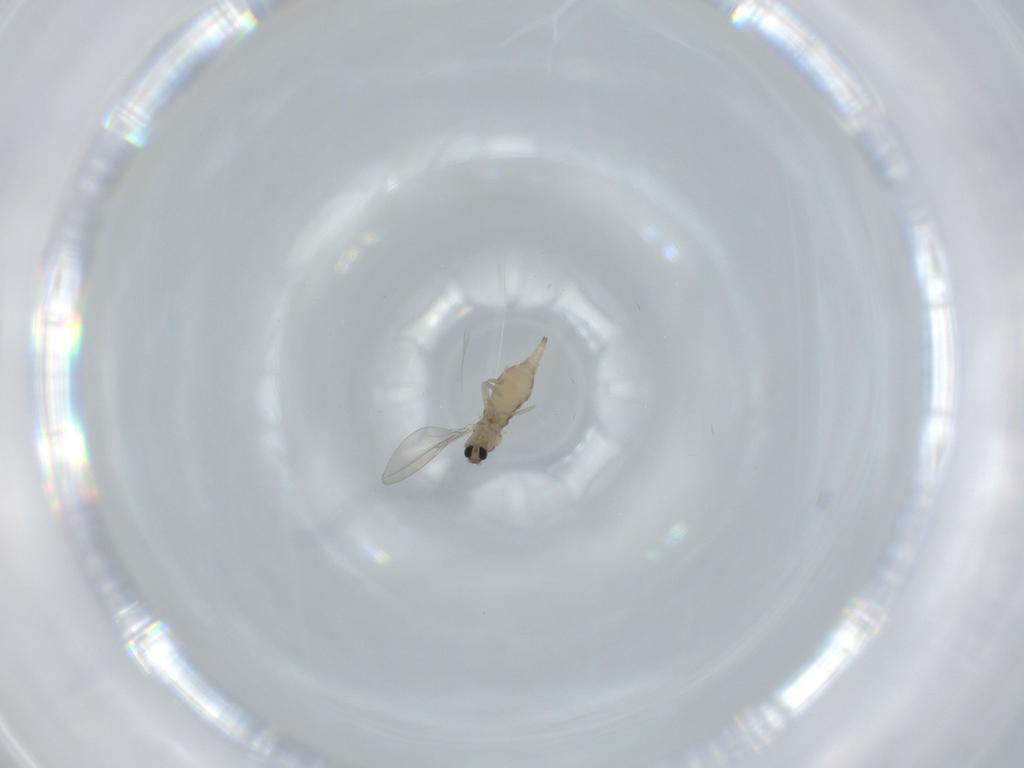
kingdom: Animalia
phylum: Arthropoda
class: Insecta
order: Diptera
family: Cecidomyiidae
